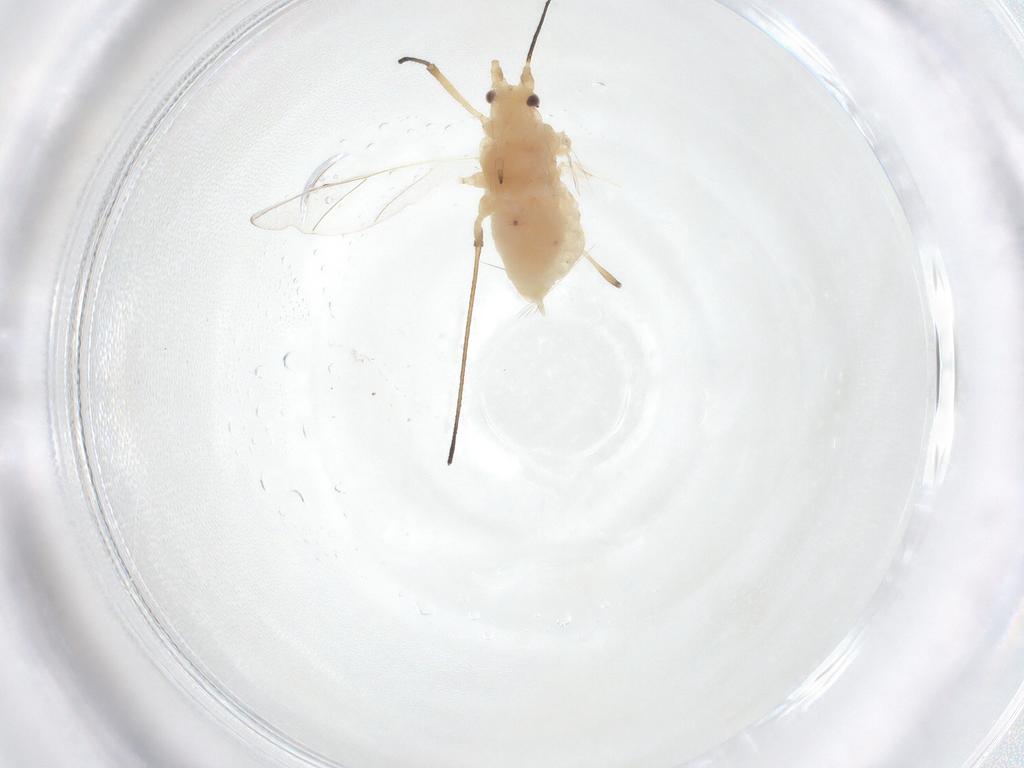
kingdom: Animalia
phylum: Arthropoda
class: Insecta
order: Hemiptera
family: Aphididae
